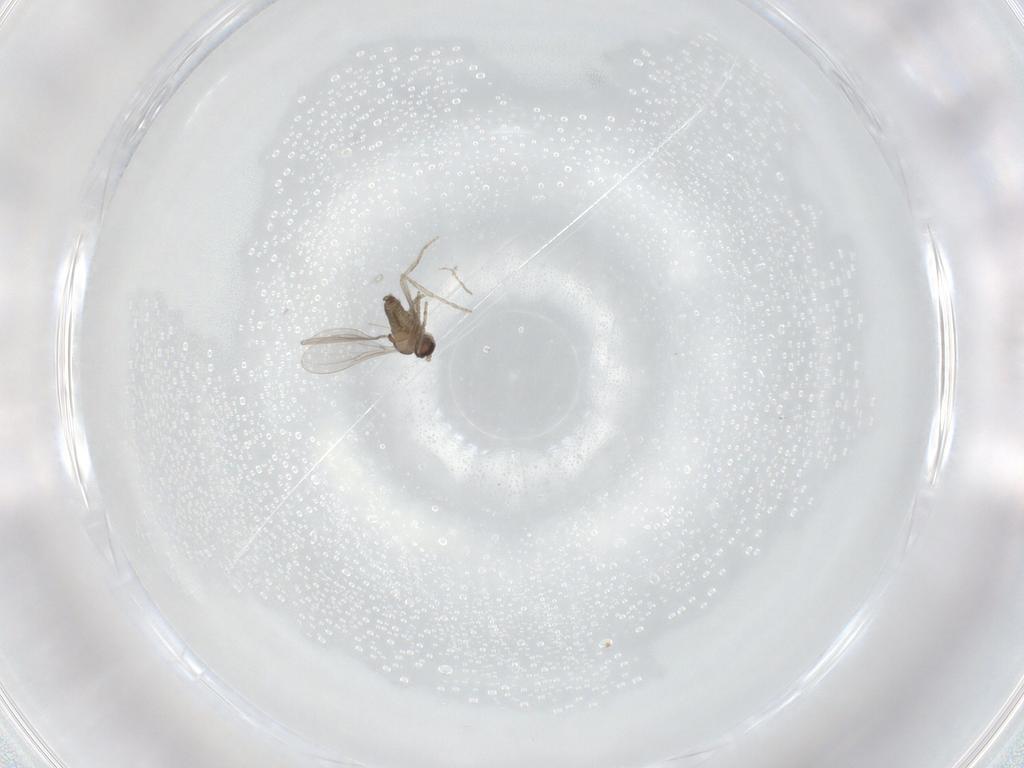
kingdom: Animalia
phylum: Arthropoda
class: Insecta
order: Diptera
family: Cecidomyiidae
